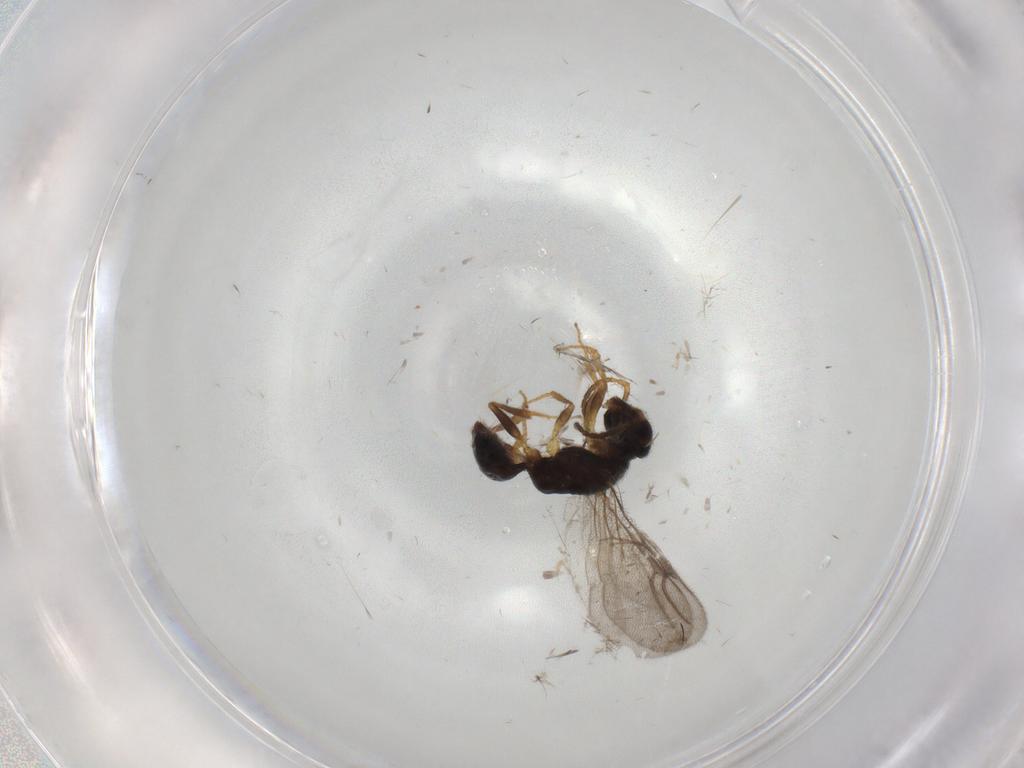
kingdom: Animalia
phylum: Arthropoda
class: Insecta
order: Hymenoptera
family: Bethylidae
